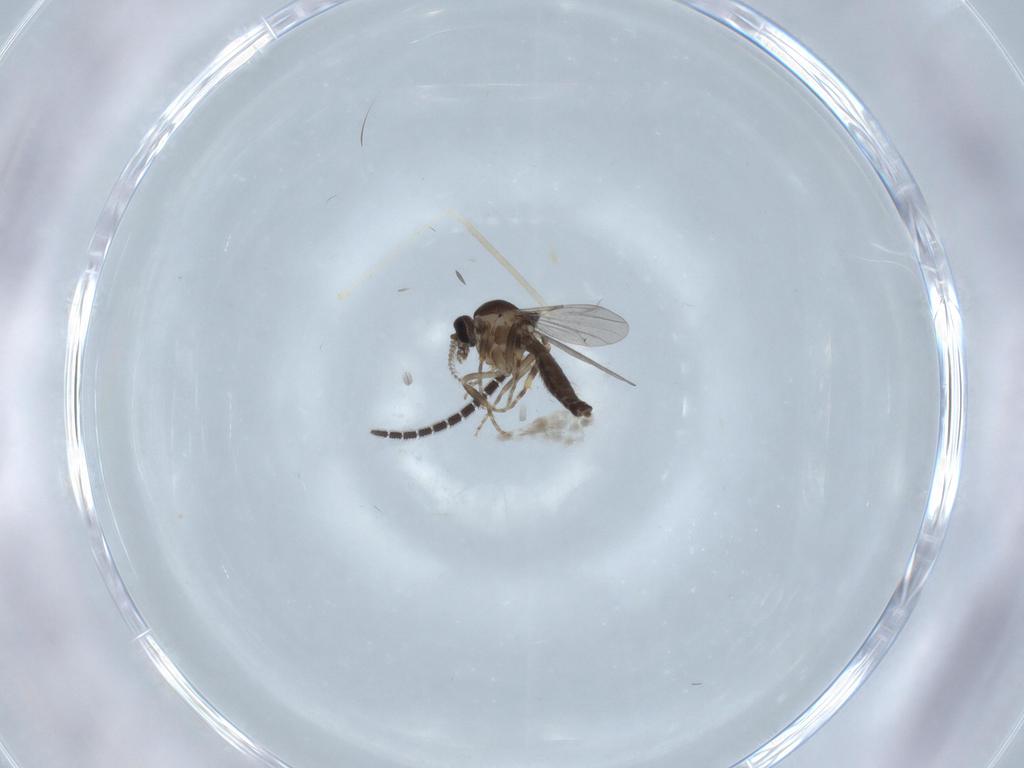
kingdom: Animalia
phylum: Arthropoda
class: Insecta
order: Diptera
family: Ceratopogonidae
